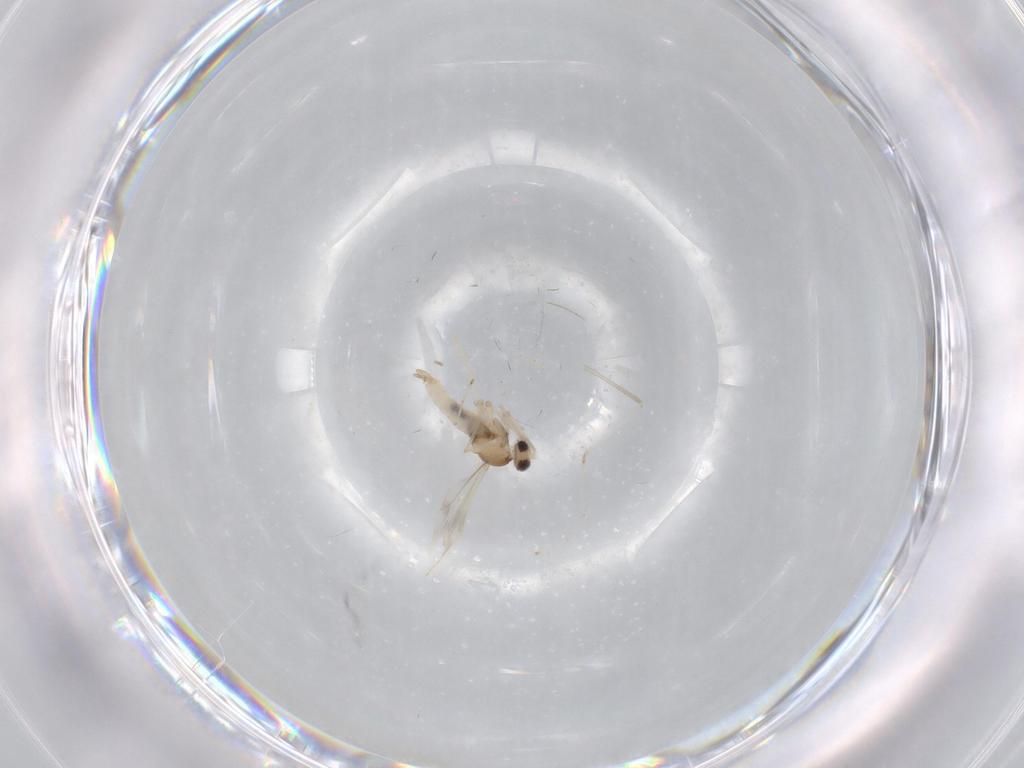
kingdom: Animalia
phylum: Arthropoda
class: Insecta
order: Diptera
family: Cecidomyiidae
